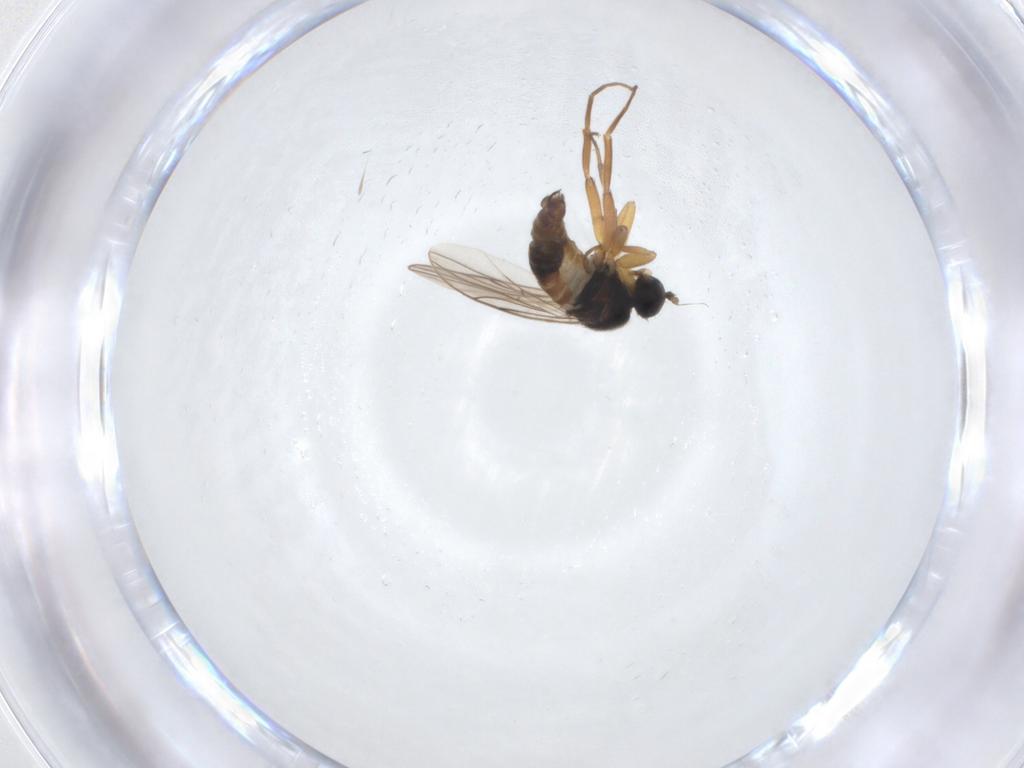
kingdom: Animalia
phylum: Arthropoda
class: Insecta
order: Diptera
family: Hybotidae
